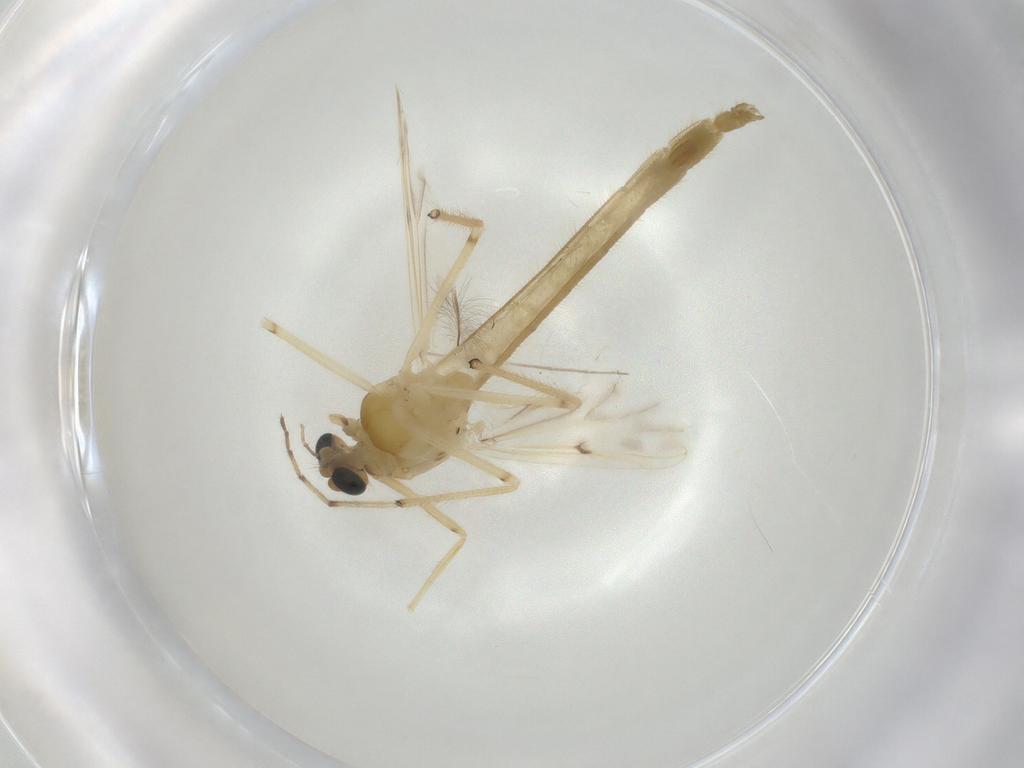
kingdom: Animalia
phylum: Arthropoda
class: Insecta
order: Diptera
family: Chironomidae
